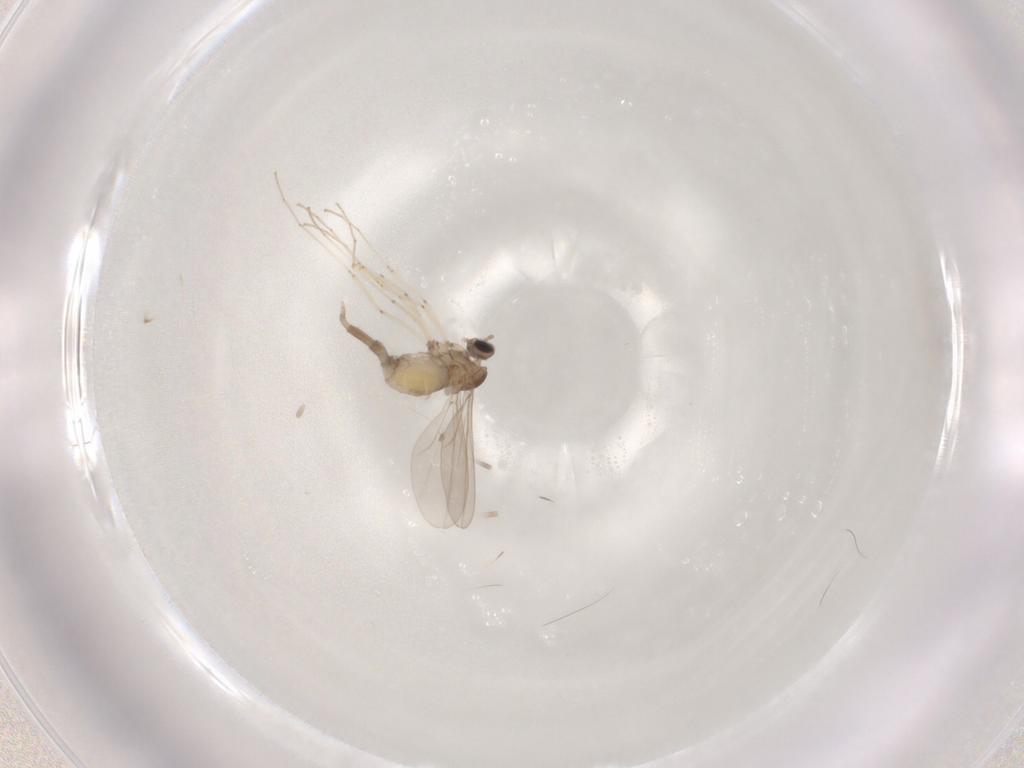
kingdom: Animalia
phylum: Arthropoda
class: Insecta
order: Diptera
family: Cecidomyiidae
